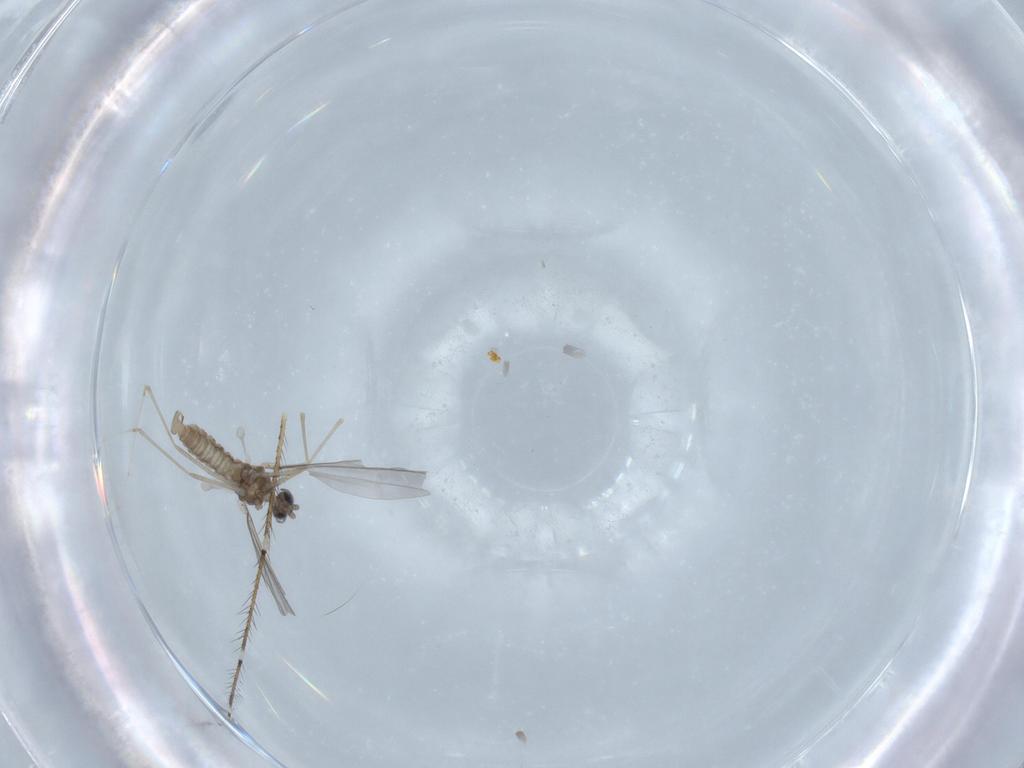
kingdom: Animalia
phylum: Arthropoda
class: Insecta
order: Diptera
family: Cecidomyiidae
